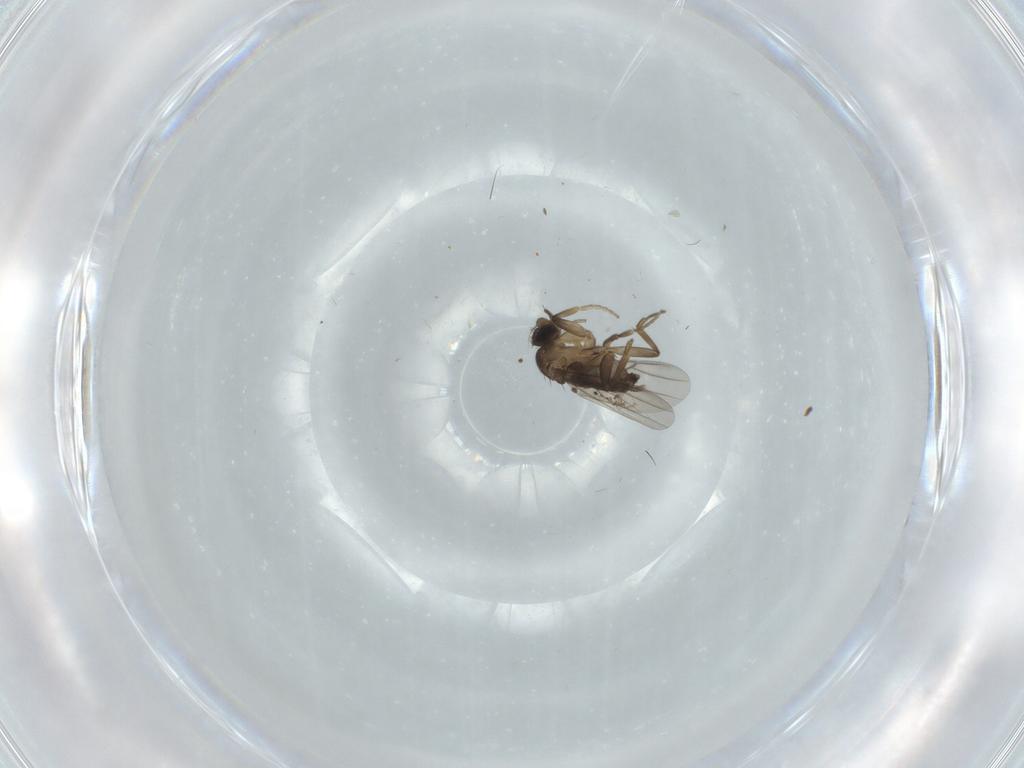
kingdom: Animalia
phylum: Arthropoda
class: Insecta
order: Diptera
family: Phoridae
